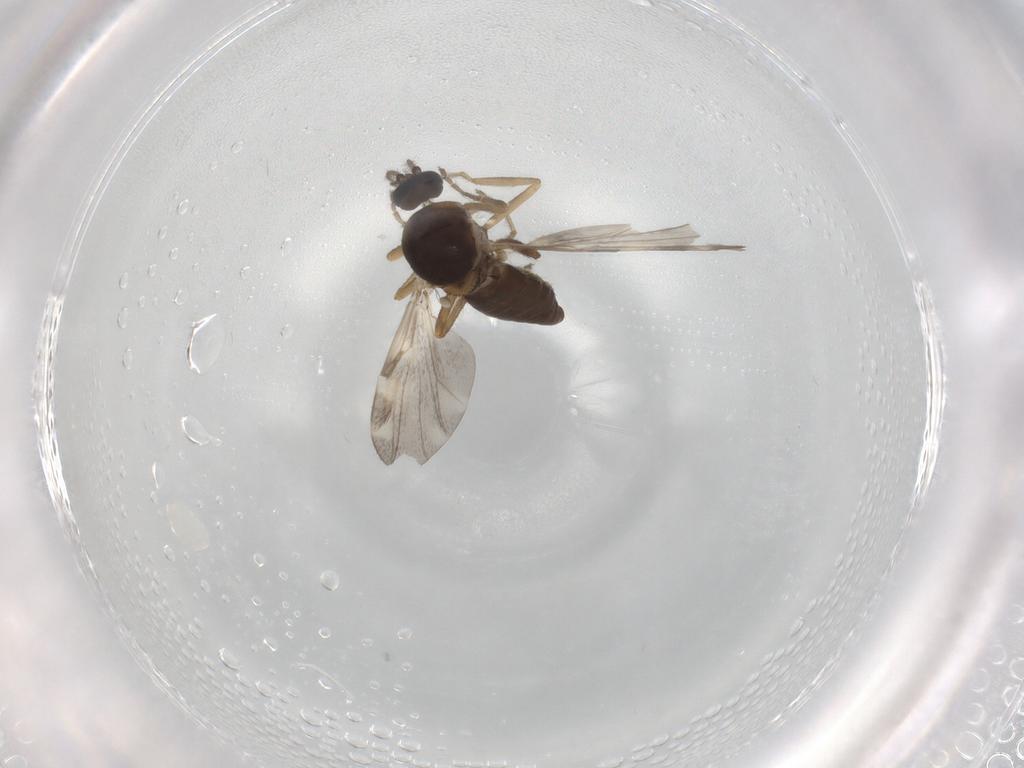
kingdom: Animalia
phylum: Arthropoda
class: Insecta
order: Diptera
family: Ceratopogonidae
